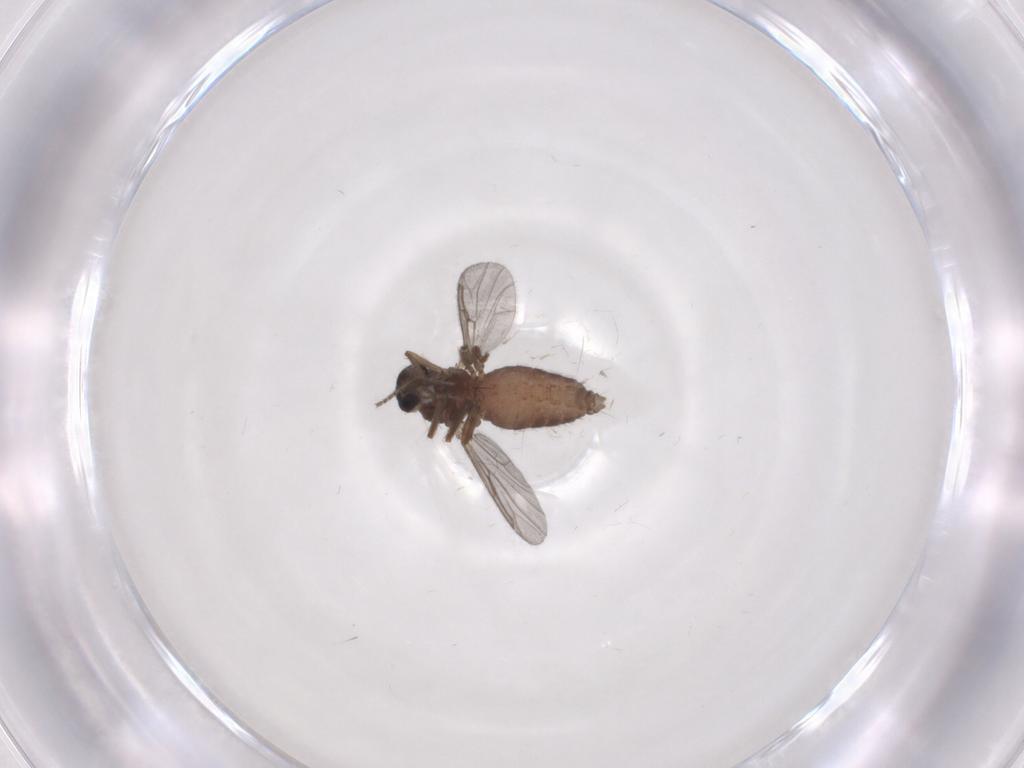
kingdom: Animalia
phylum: Arthropoda
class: Insecta
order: Diptera
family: Ceratopogonidae
